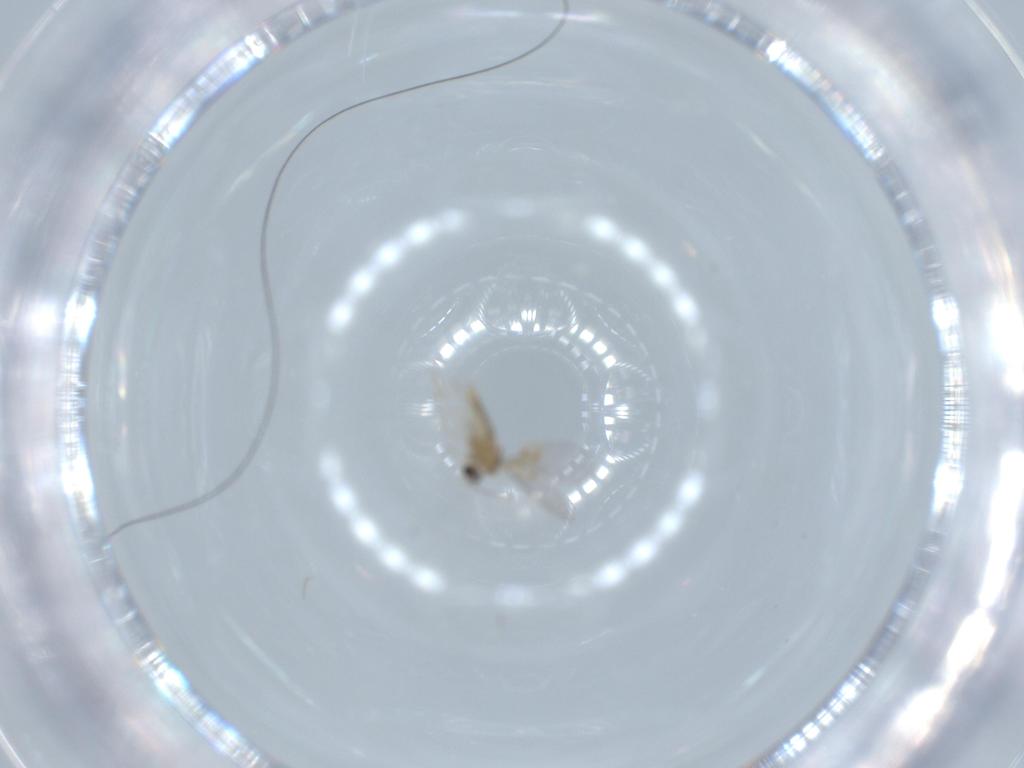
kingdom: Animalia
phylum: Arthropoda
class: Insecta
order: Diptera
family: Cecidomyiidae
